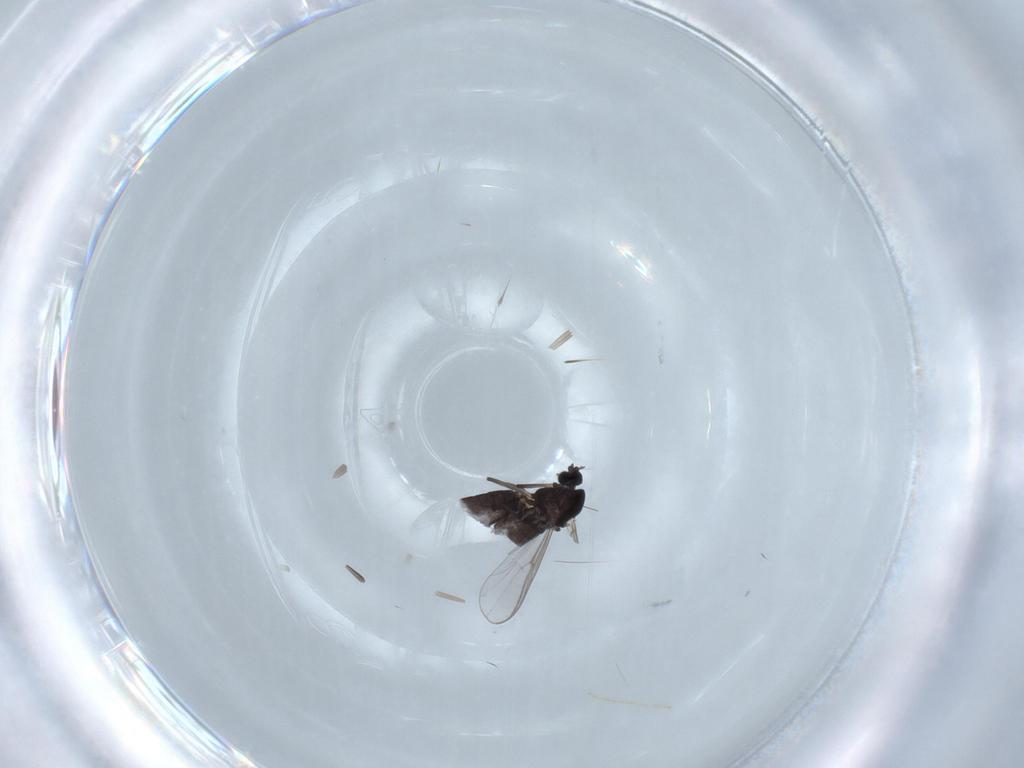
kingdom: Animalia
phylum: Arthropoda
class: Insecta
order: Diptera
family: Chironomidae
